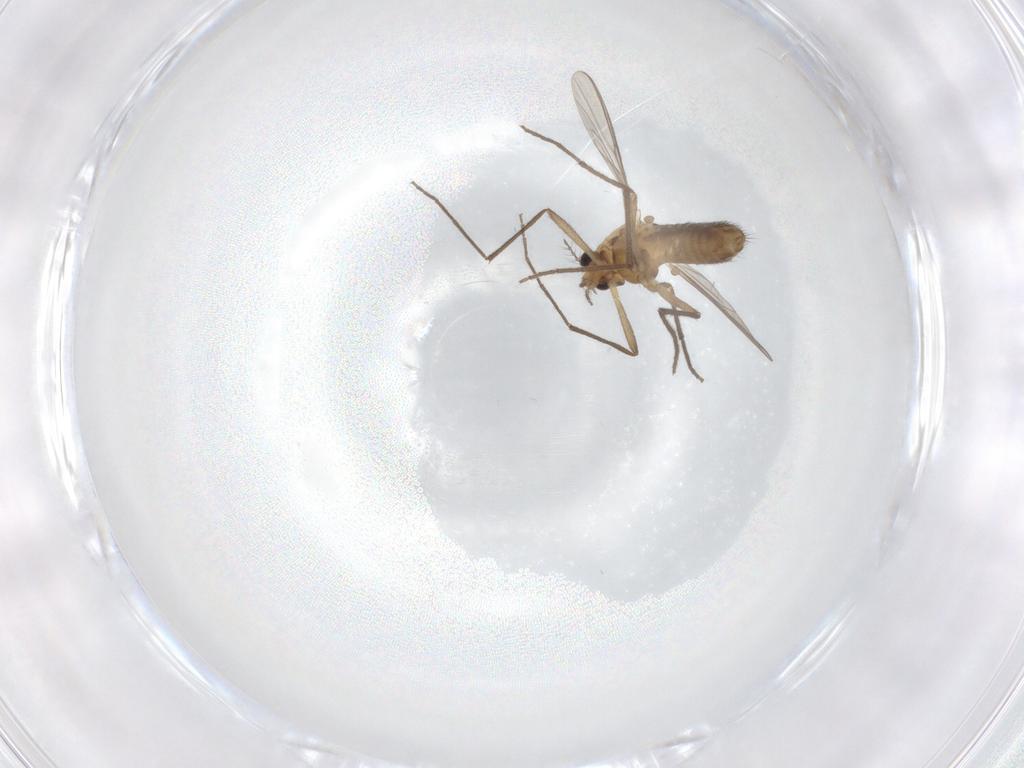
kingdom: Animalia
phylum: Arthropoda
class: Insecta
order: Diptera
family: Chironomidae
